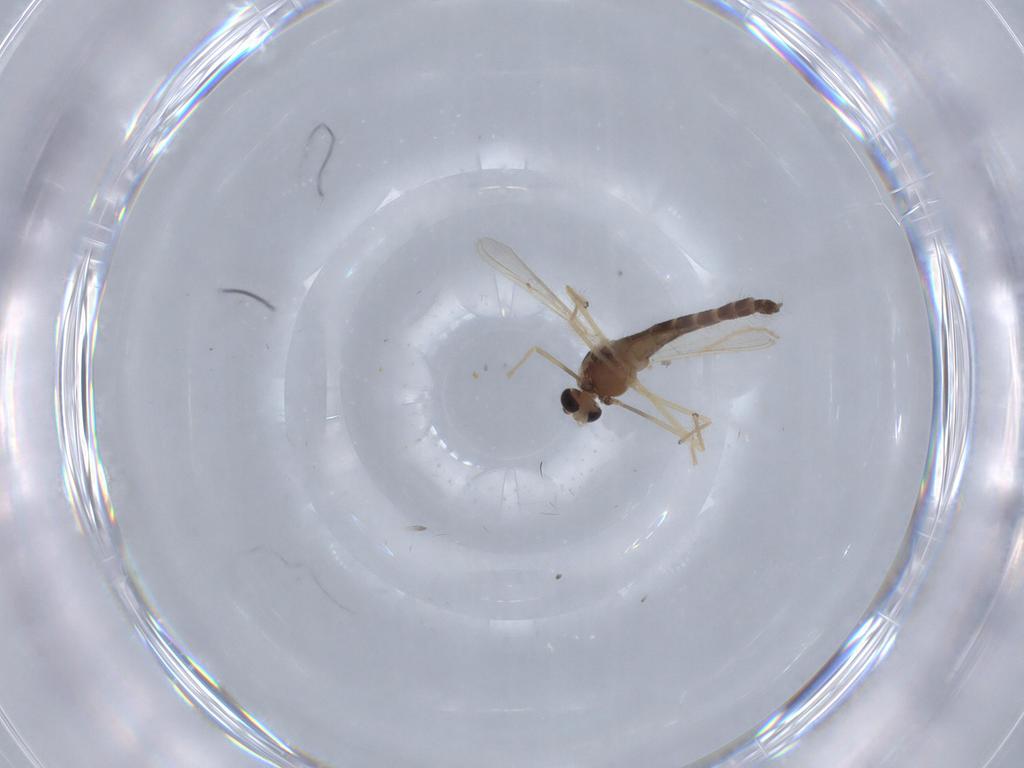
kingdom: Animalia
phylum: Arthropoda
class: Insecta
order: Diptera
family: Chironomidae
